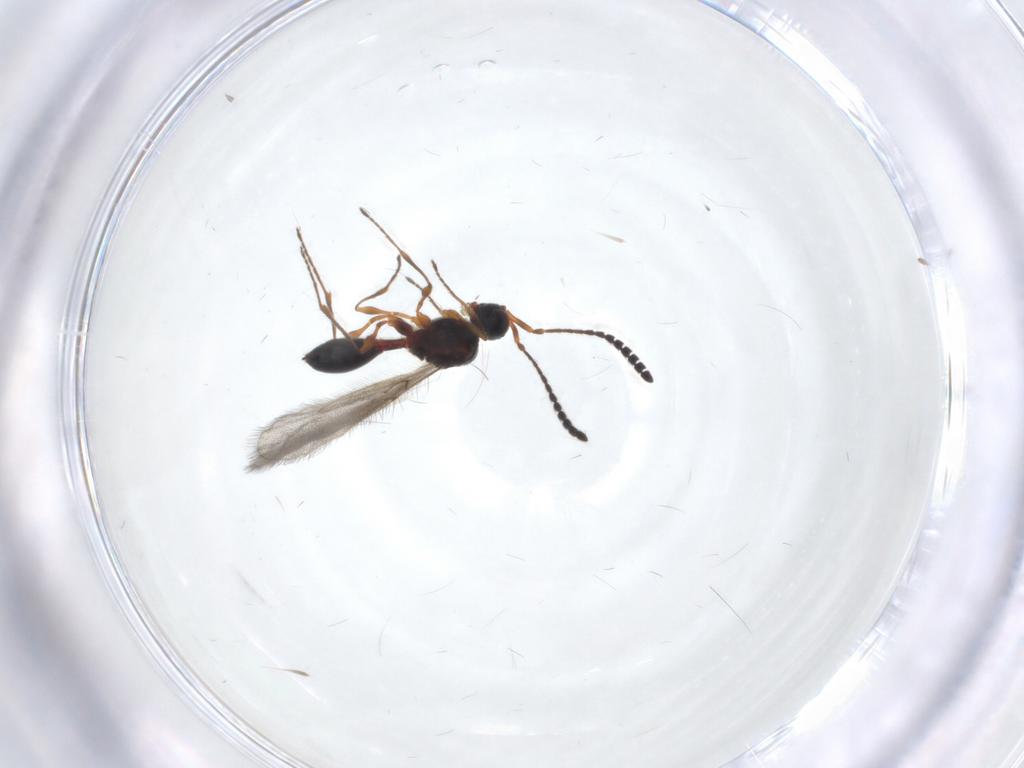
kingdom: Animalia
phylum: Arthropoda
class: Insecta
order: Hymenoptera
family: Diapriidae
